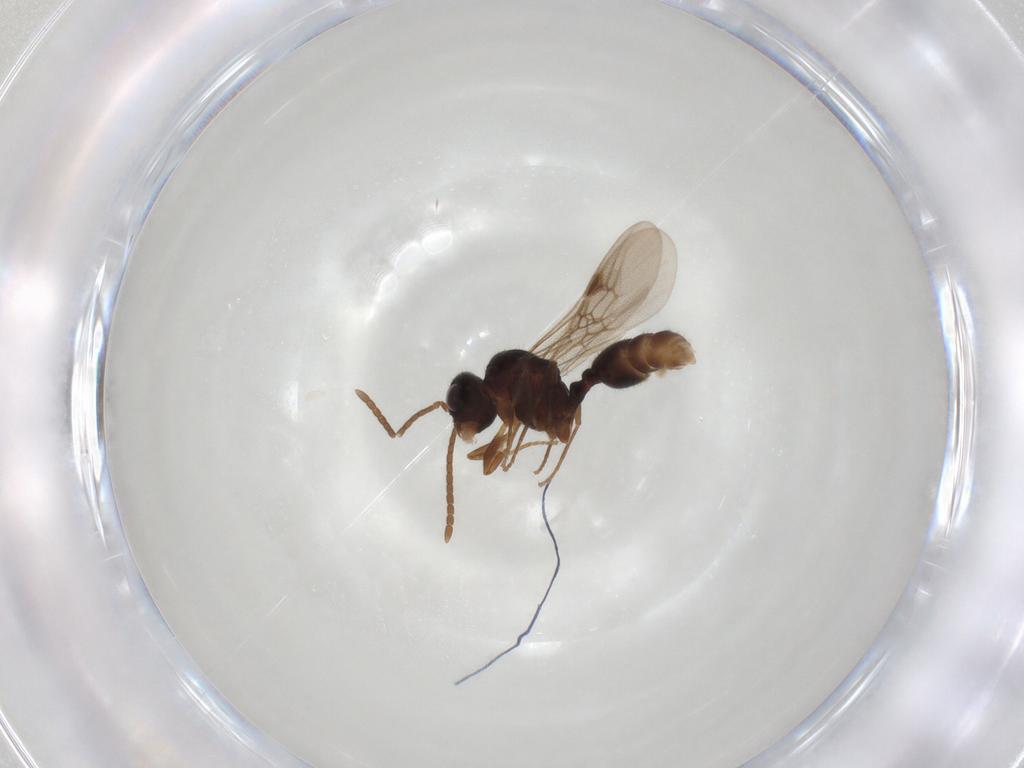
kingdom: Animalia
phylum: Arthropoda
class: Insecta
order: Hymenoptera
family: Formicidae
